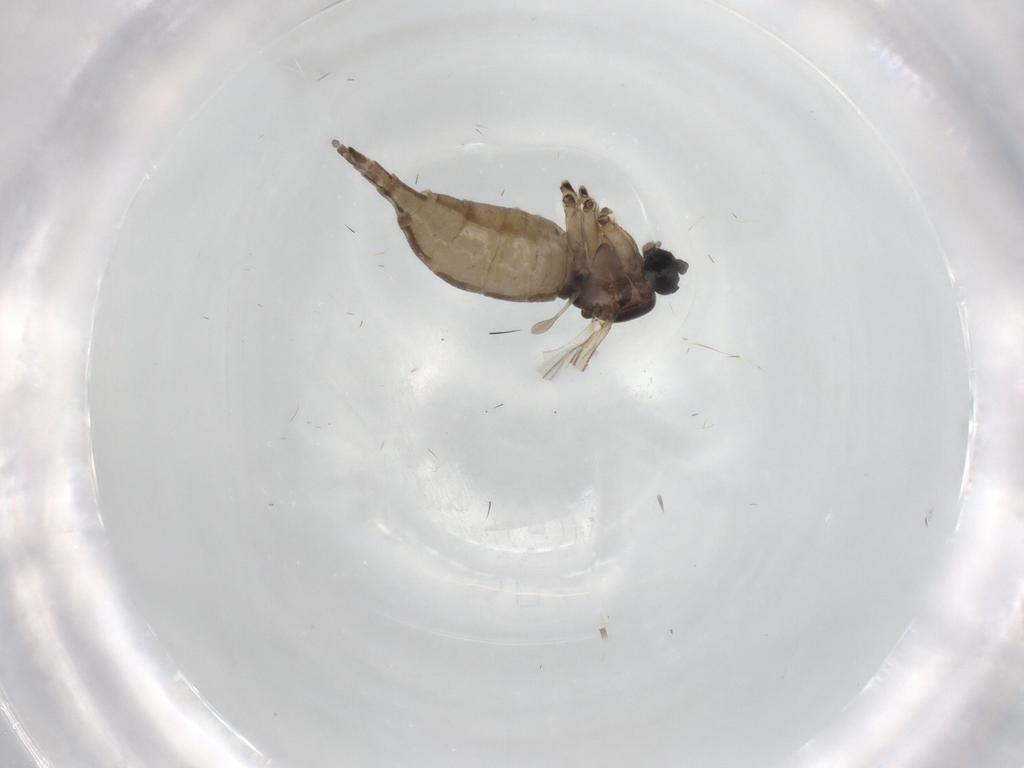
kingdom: Animalia
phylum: Arthropoda
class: Insecta
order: Diptera
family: Sciaridae
